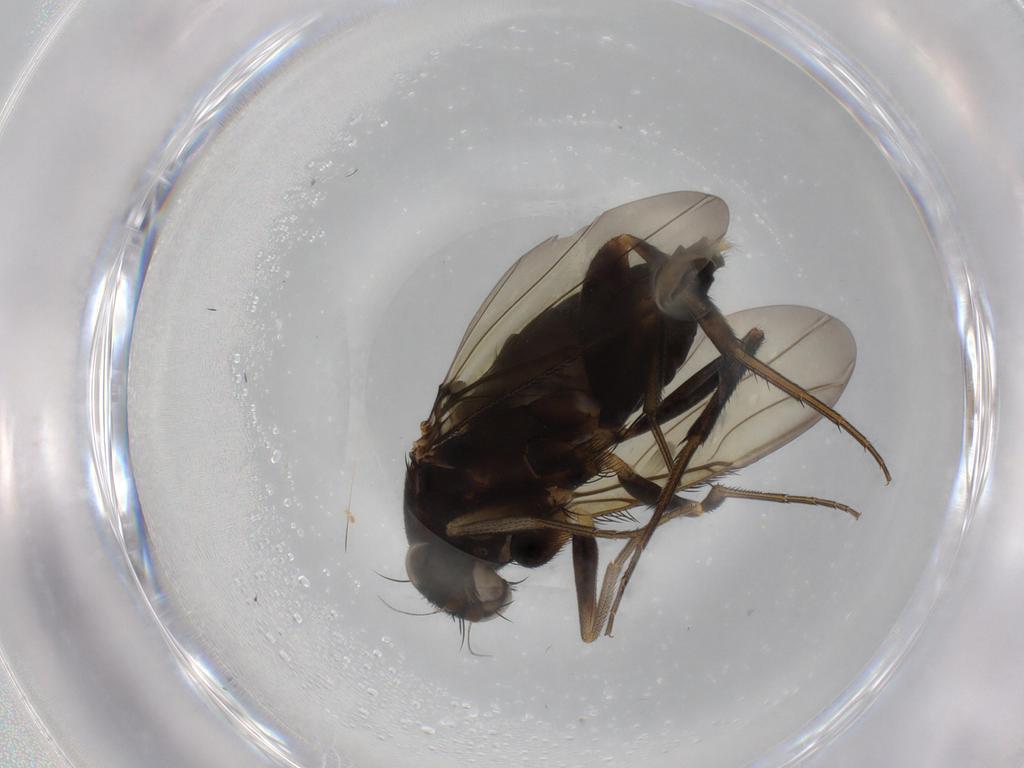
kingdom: Animalia
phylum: Arthropoda
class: Insecta
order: Diptera
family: Dolichopodidae
